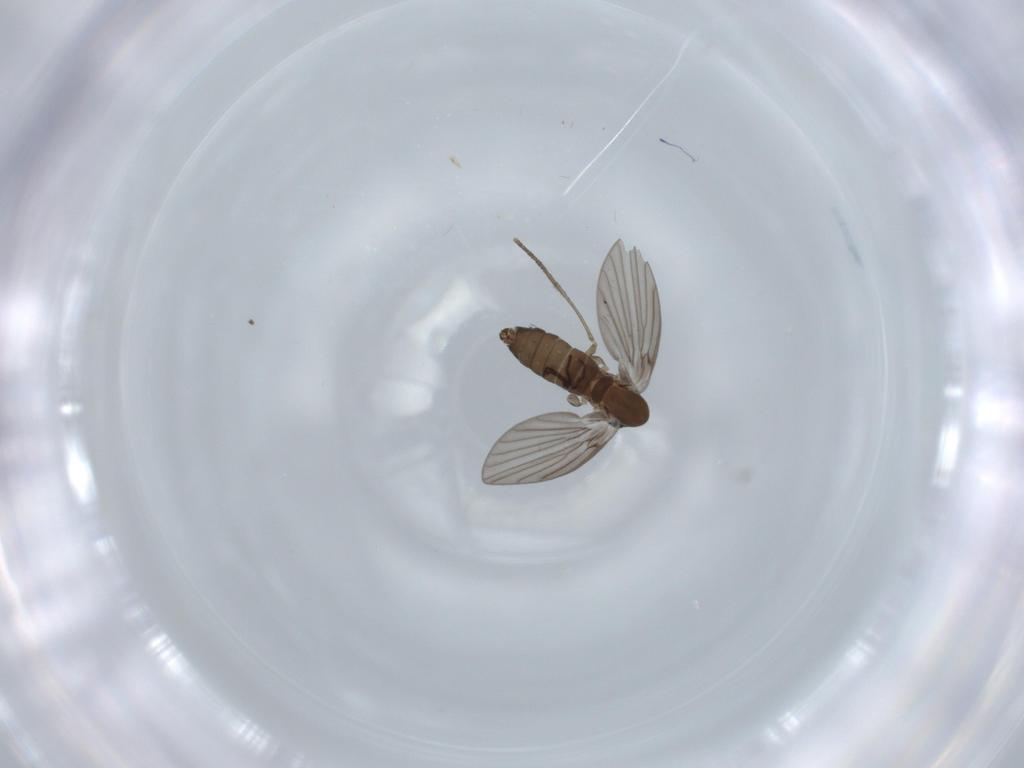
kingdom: Animalia
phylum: Arthropoda
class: Insecta
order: Diptera
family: Psychodidae
